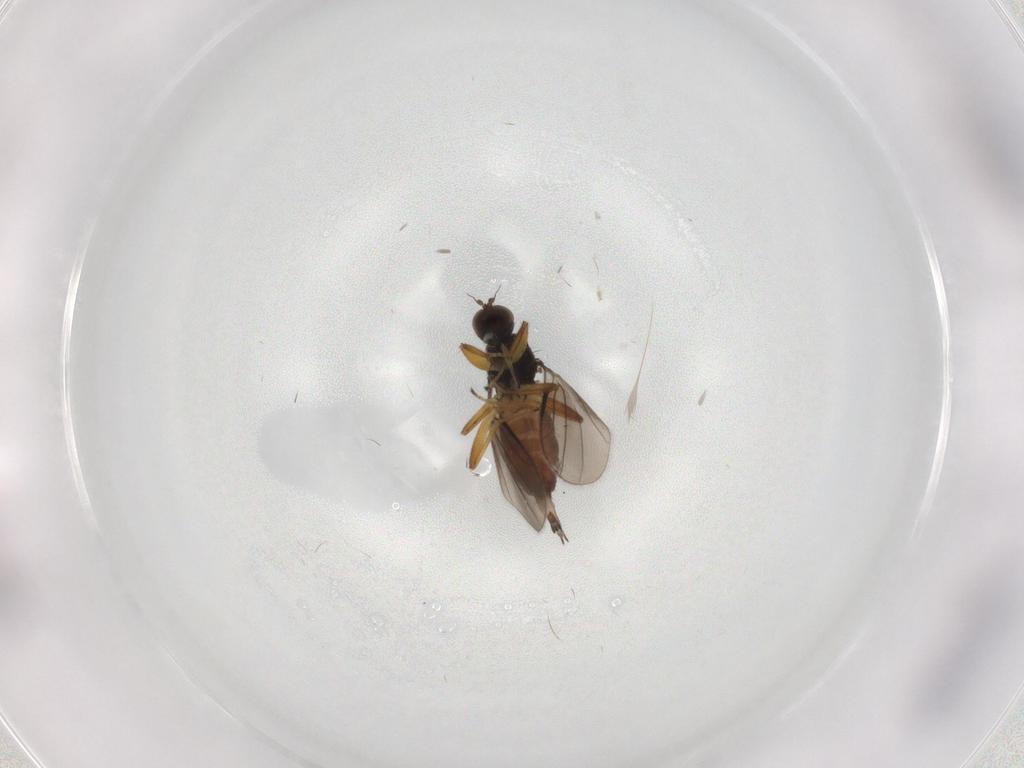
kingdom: Animalia
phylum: Arthropoda
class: Insecta
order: Diptera
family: Hybotidae
